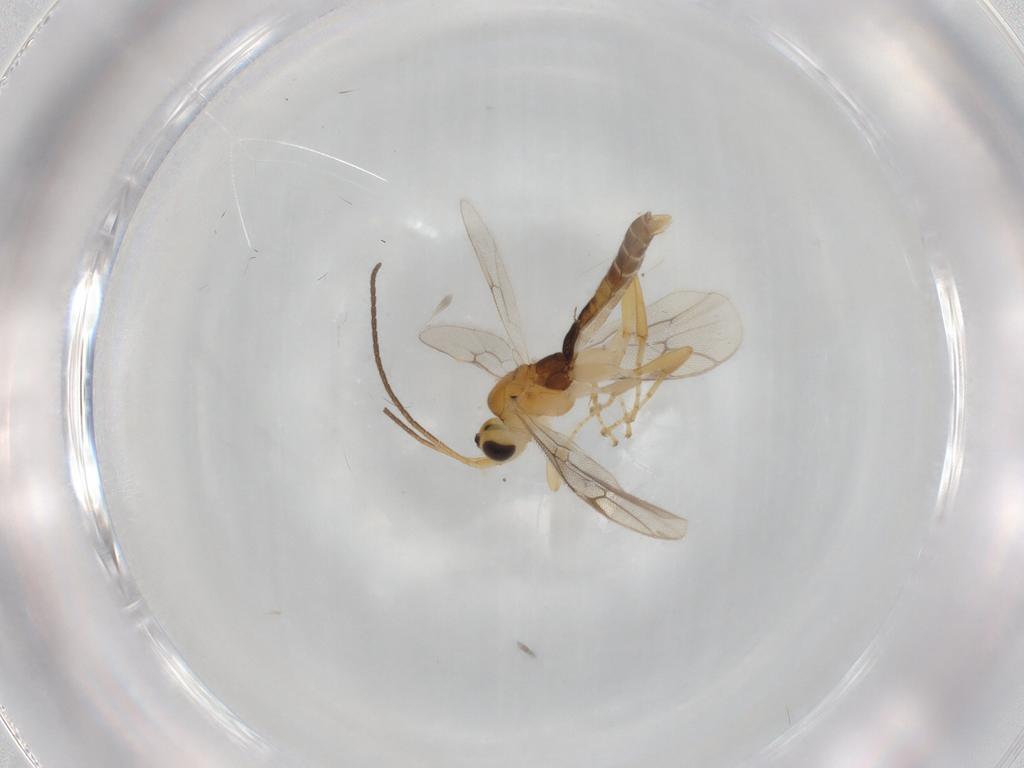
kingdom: Animalia
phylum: Arthropoda
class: Insecta
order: Hymenoptera
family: Ichneumonidae
